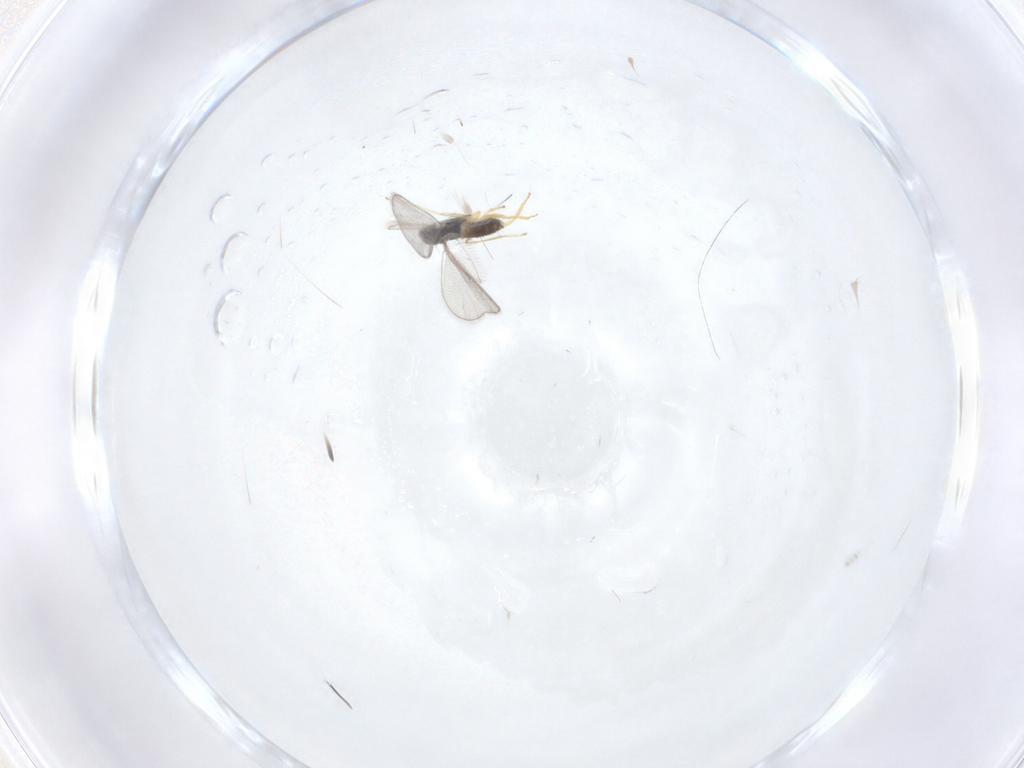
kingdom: Animalia
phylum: Arthropoda
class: Insecta
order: Hymenoptera
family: Eulophidae
